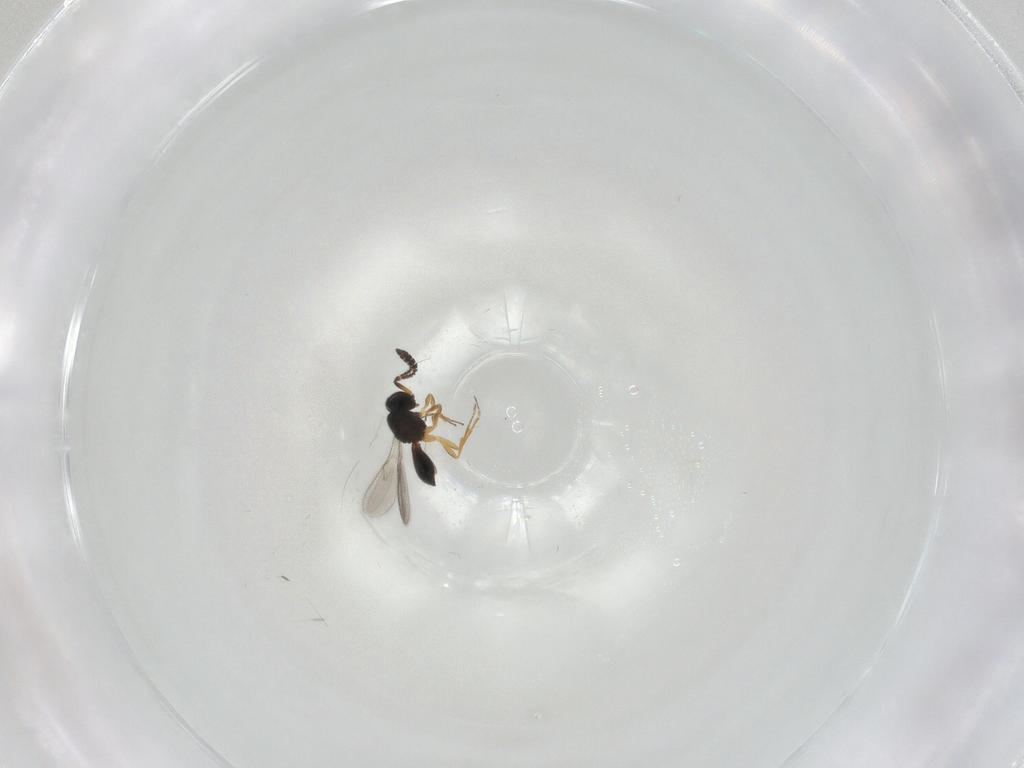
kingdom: Animalia
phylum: Arthropoda
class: Insecta
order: Hymenoptera
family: Scelionidae
